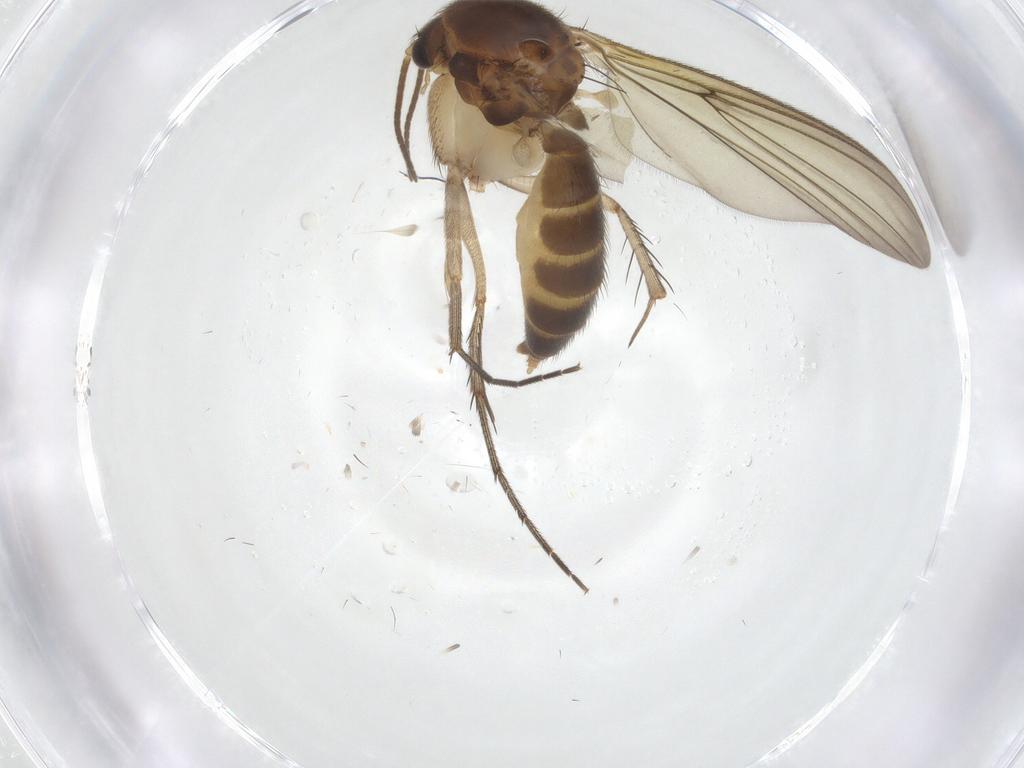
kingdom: Animalia
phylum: Arthropoda
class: Insecta
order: Diptera
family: Mycetophilidae
